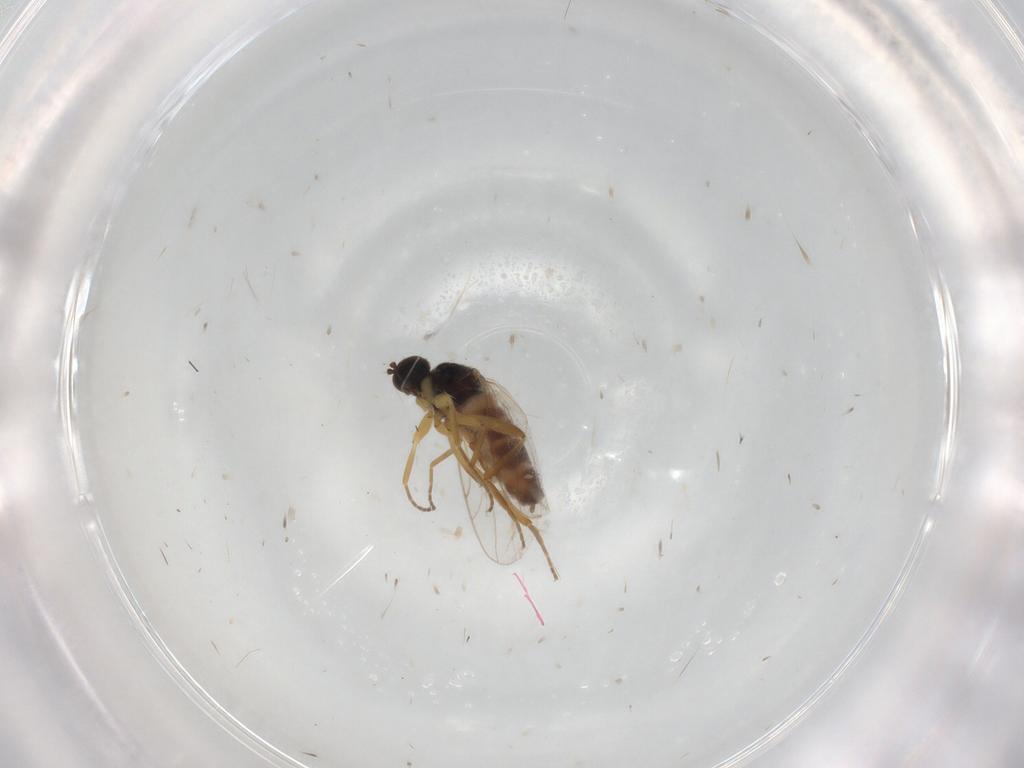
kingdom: Animalia
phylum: Arthropoda
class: Insecta
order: Diptera
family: Hybotidae
